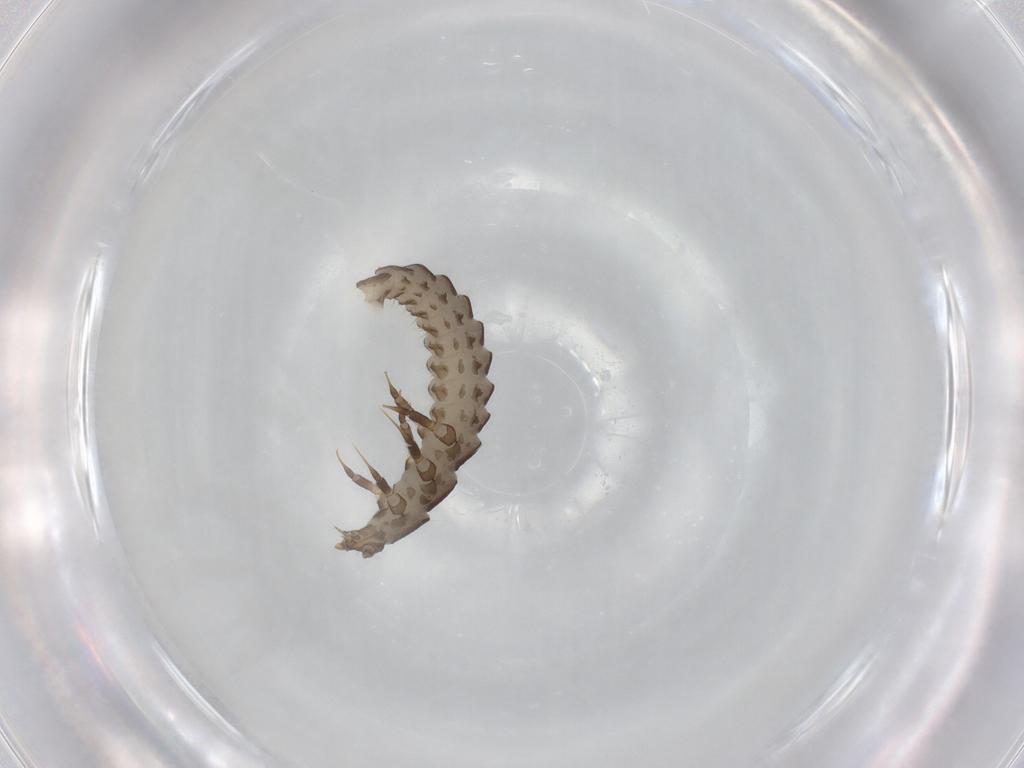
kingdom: Animalia
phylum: Arthropoda
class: Insecta
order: Coleoptera
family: Lycidae
